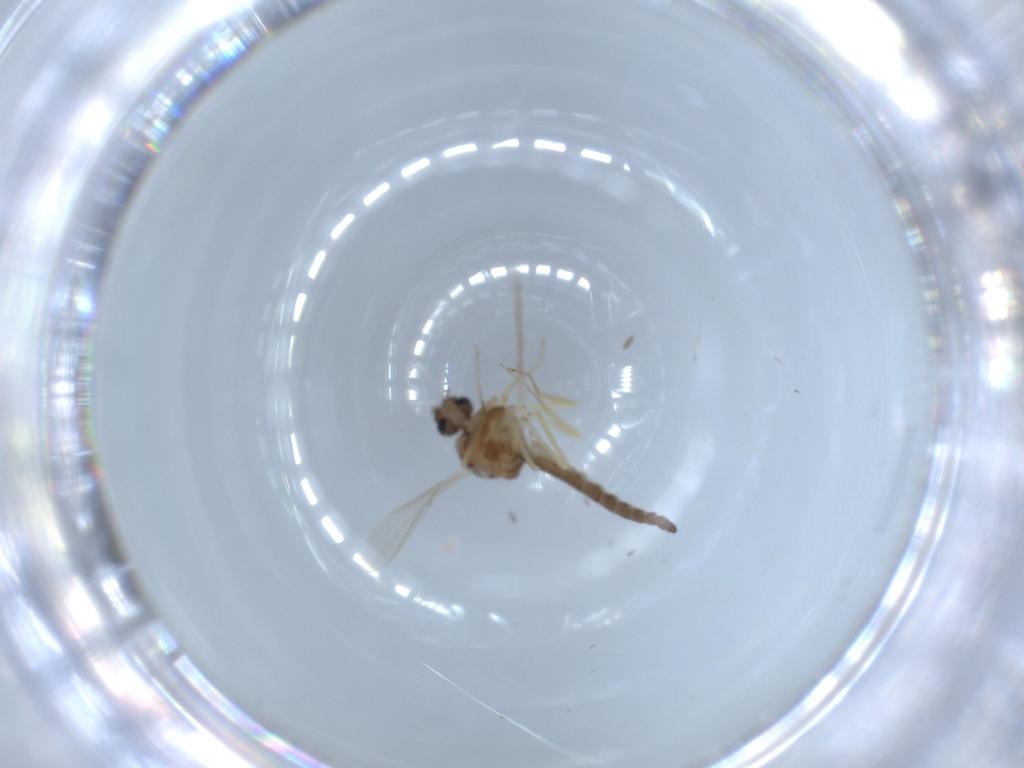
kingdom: Animalia
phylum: Arthropoda
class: Insecta
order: Diptera
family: Ceratopogonidae
